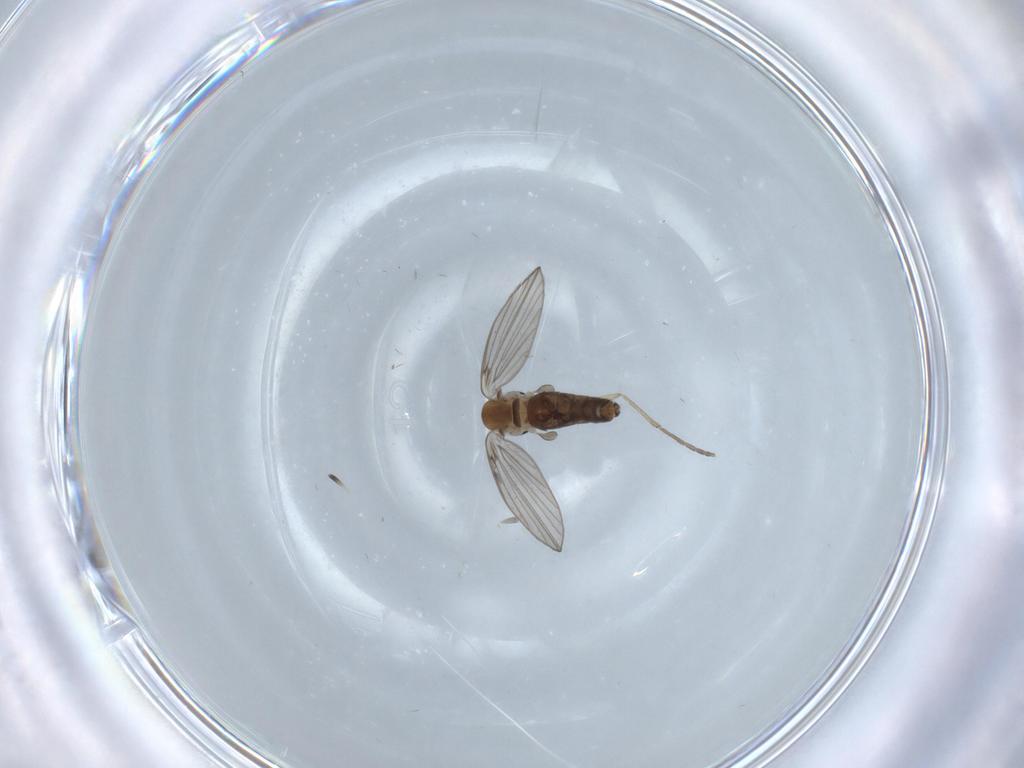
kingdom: Animalia
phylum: Arthropoda
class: Insecta
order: Diptera
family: Psychodidae
